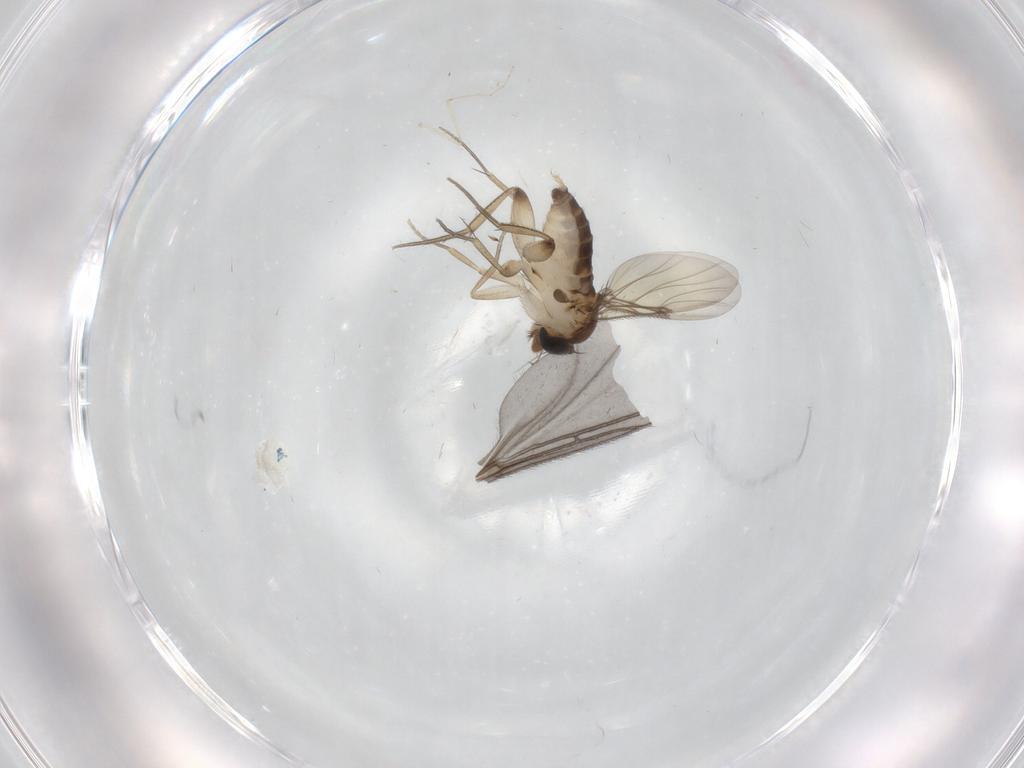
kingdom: Animalia
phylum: Arthropoda
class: Insecta
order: Diptera
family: Phoridae
